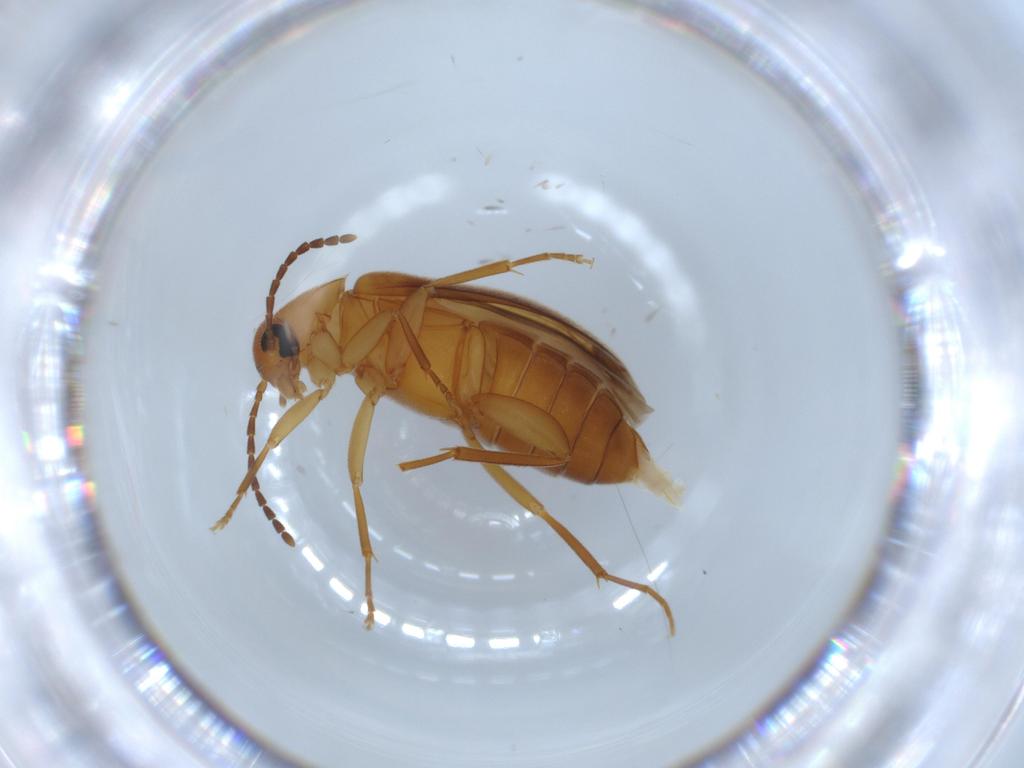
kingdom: Animalia
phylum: Arthropoda
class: Insecta
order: Coleoptera
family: Scraptiidae
